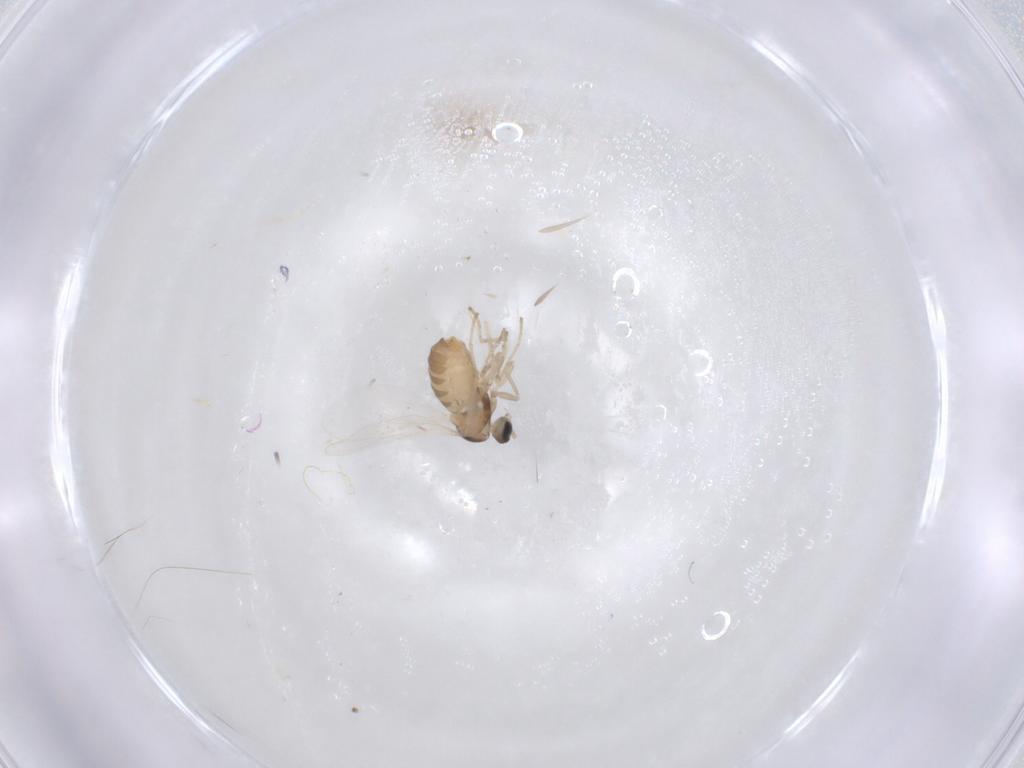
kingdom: Animalia
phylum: Arthropoda
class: Insecta
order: Diptera
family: Cecidomyiidae
